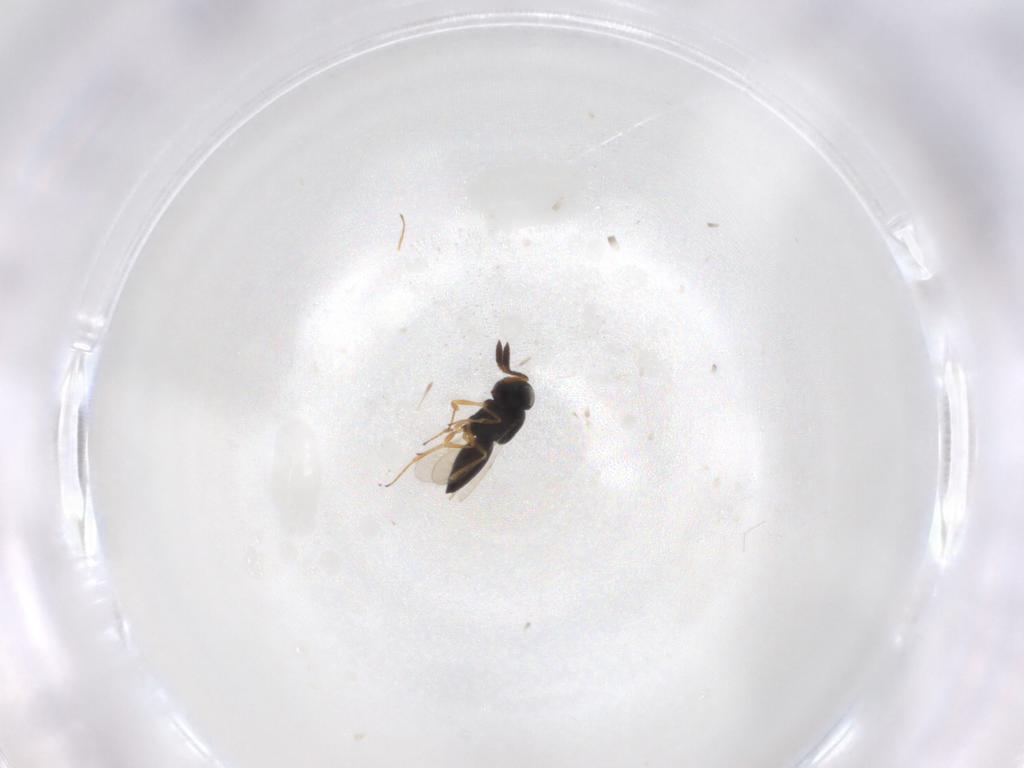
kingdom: Animalia
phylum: Arthropoda
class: Insecta
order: Hymenoptera
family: Scelionidae
